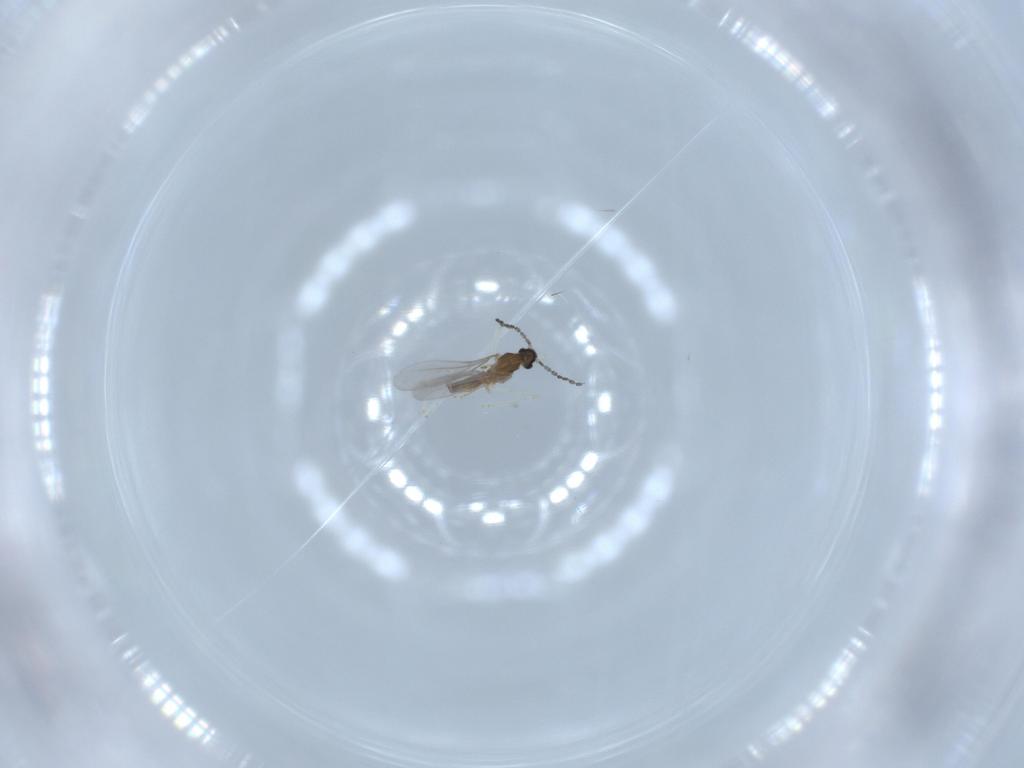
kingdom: Animalia
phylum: Arthropoda
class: Insecta
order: Diptera
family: Cecidomyiidae
